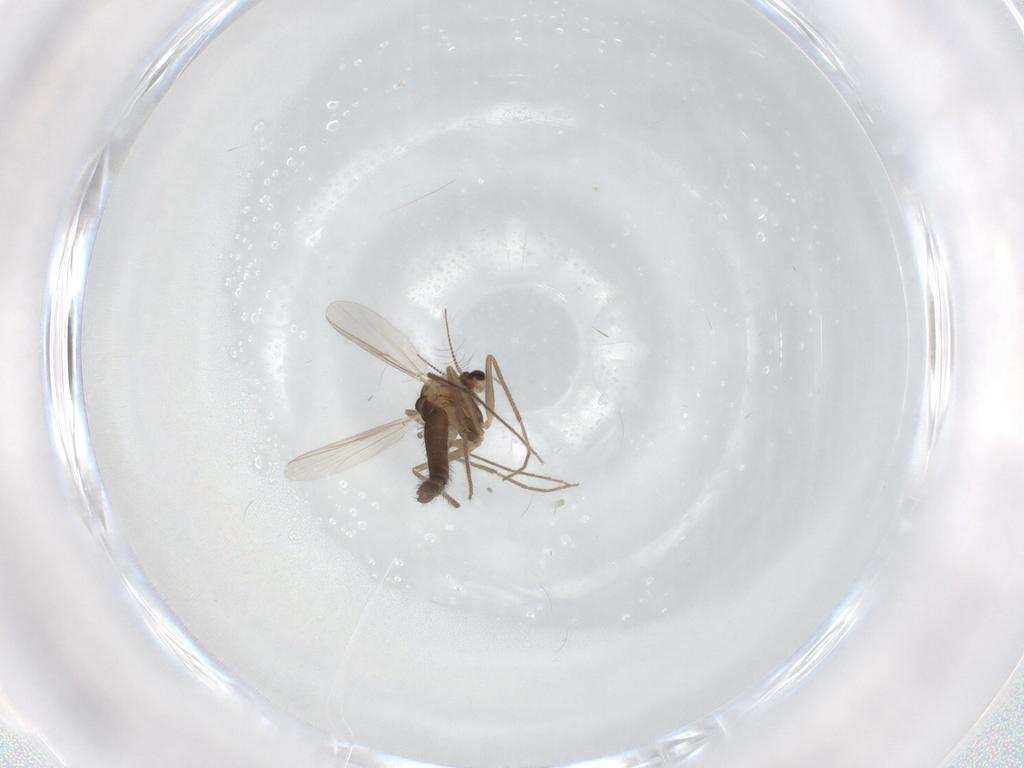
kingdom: Animalia
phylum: Arthropoda
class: Insecta
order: Diptera
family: Chironomidae
